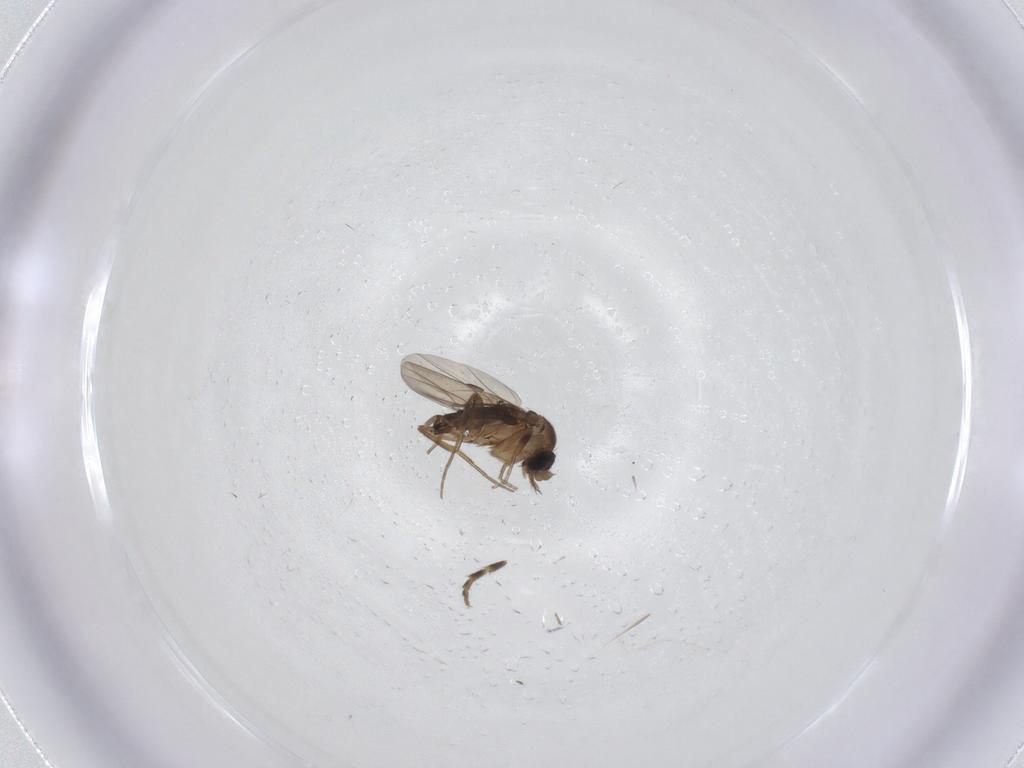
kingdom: Animalia
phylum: Arthropoda
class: Insecta
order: Diptera
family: Phoridae
